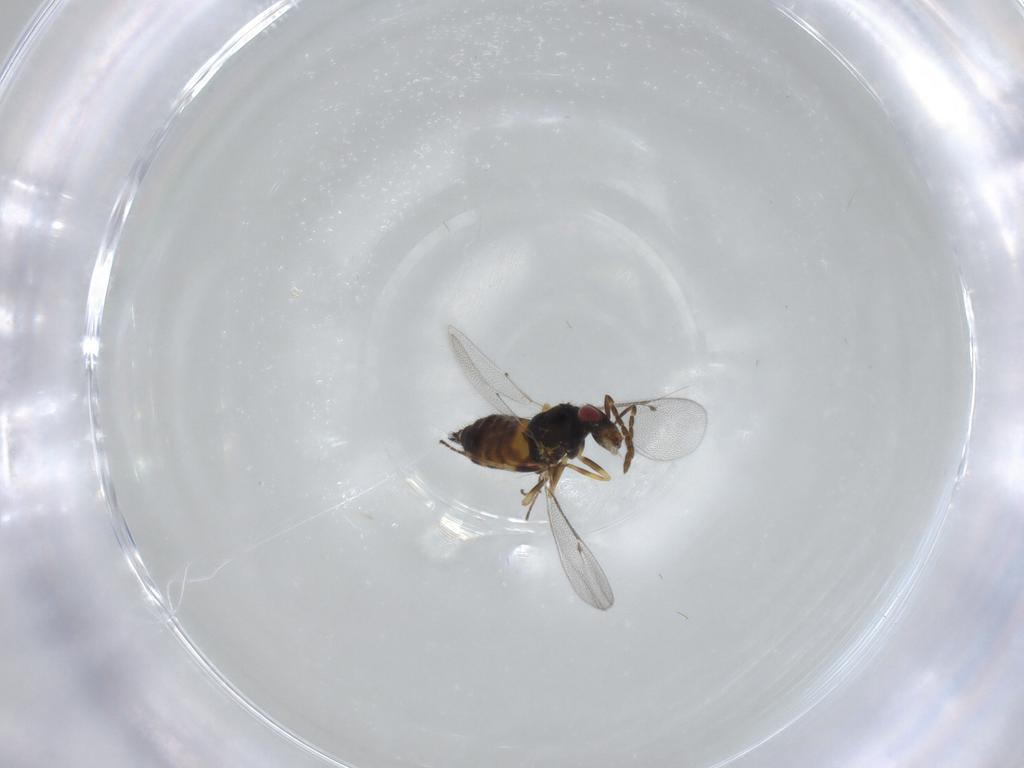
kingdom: Animalia
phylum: Arthropoda
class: Insecta
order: Hymenoptera
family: Eulophidae
